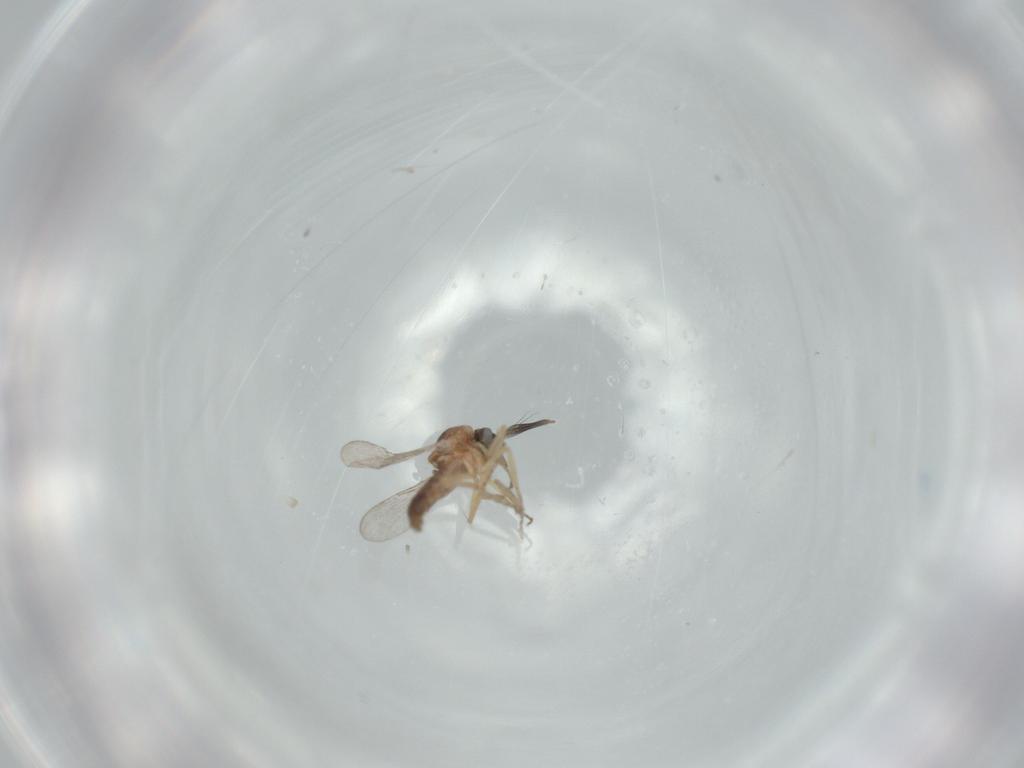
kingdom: Animalia
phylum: Arthropoda
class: Insecta
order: Diptera
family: Ceratopogonidae
